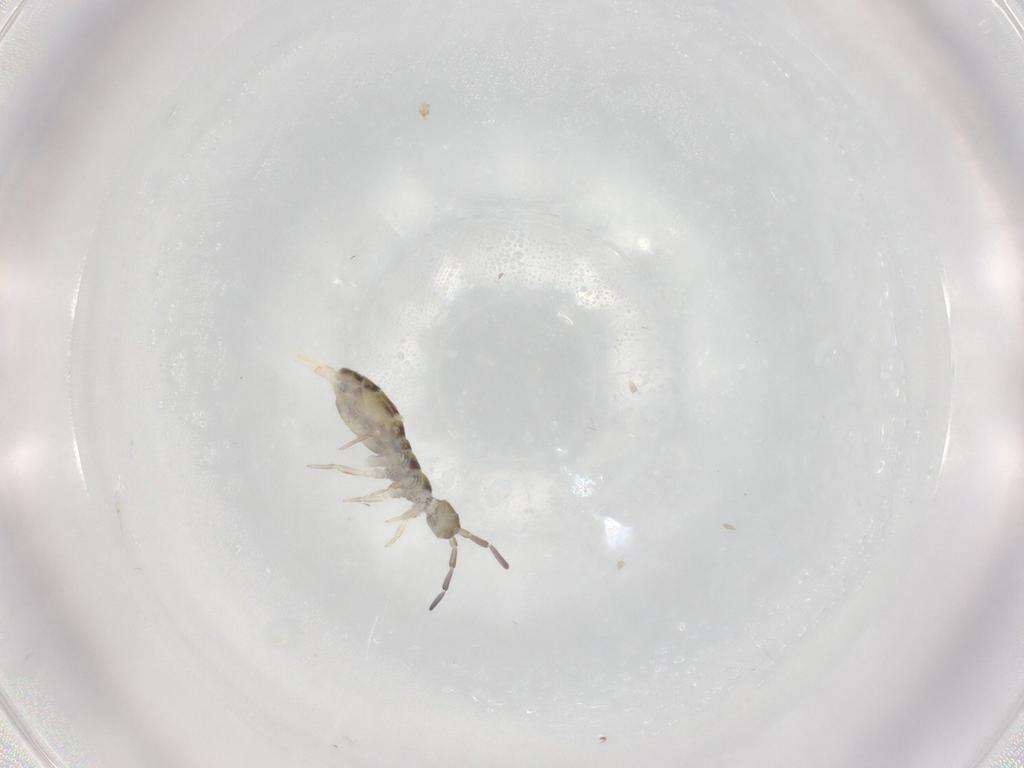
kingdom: Animalia
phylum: Arthropoda
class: Collembola
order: Entomobryomorpha
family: Isotomidae
